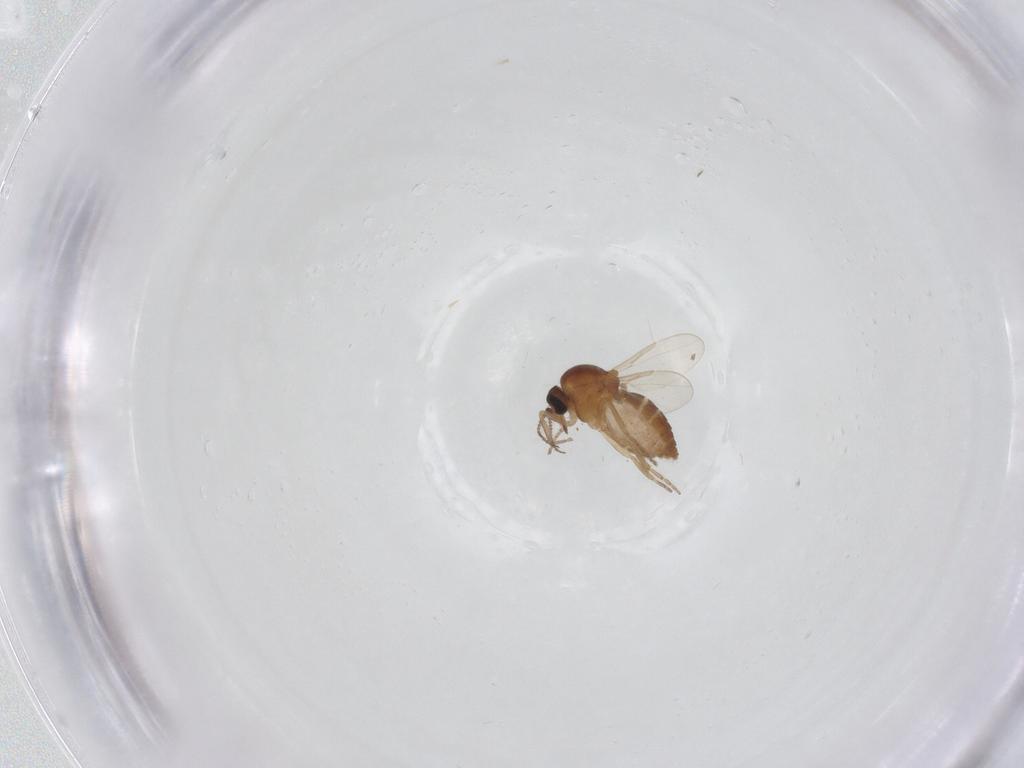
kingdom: Animalia
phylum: Arthropoda
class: Insecta
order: Diptera
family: Ceratopogonidae
